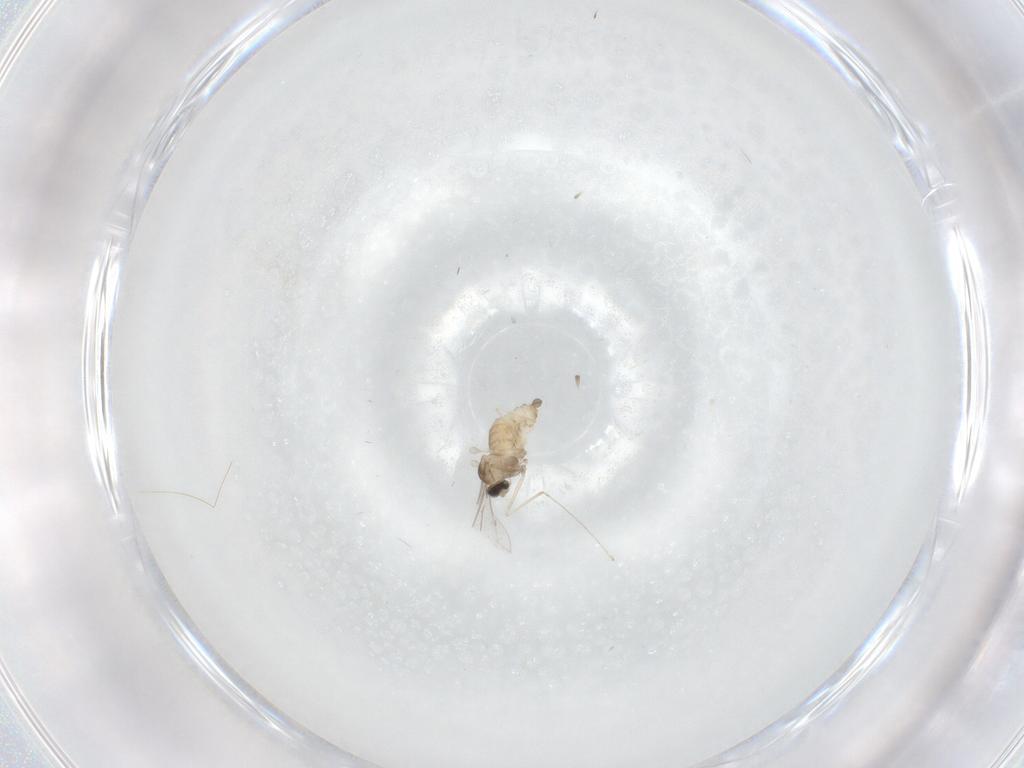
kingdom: Animalia
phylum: Arthropoda
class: Insecta
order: Diptera
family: Cecidomyiidae
